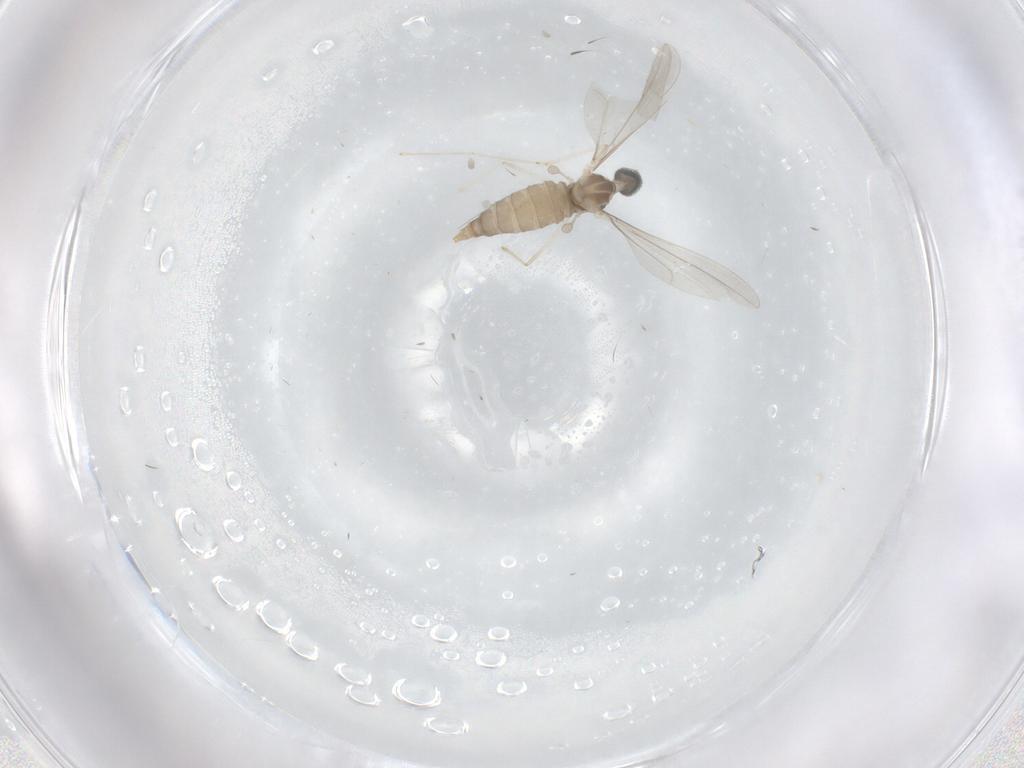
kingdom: Animalia
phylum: Arthropoda
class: Insecta
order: Diptera
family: Cecidomyiidae
